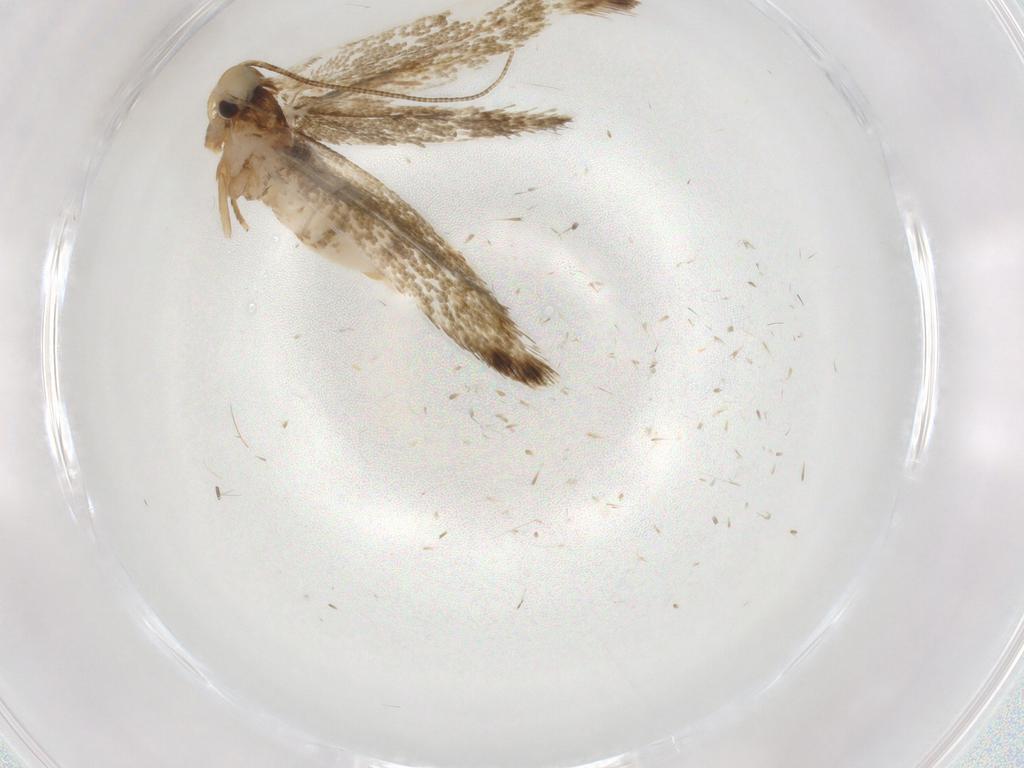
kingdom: Animalia
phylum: Arthropoda
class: Insecta
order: Lepidoptera
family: Tineidae
